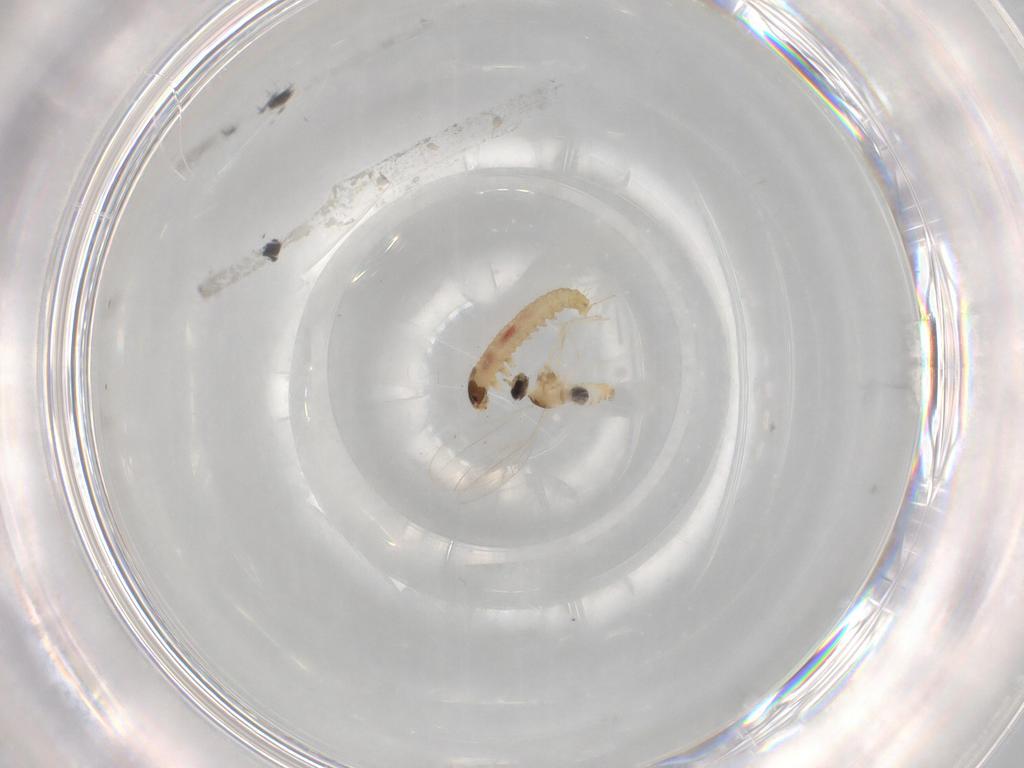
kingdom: Animalia
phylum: Arthropoda
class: Insecta
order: Diptera
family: Cecidomyiidae
